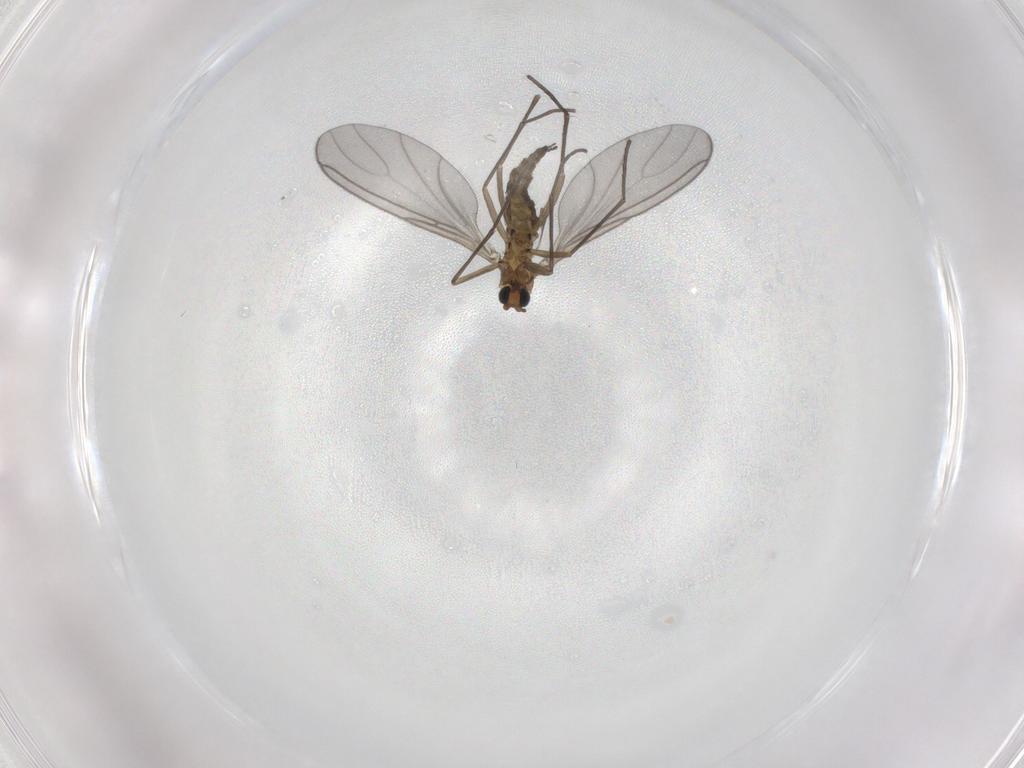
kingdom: Animalia
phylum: Arthropoda
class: Insecta
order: Diptera
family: Sciaridae
